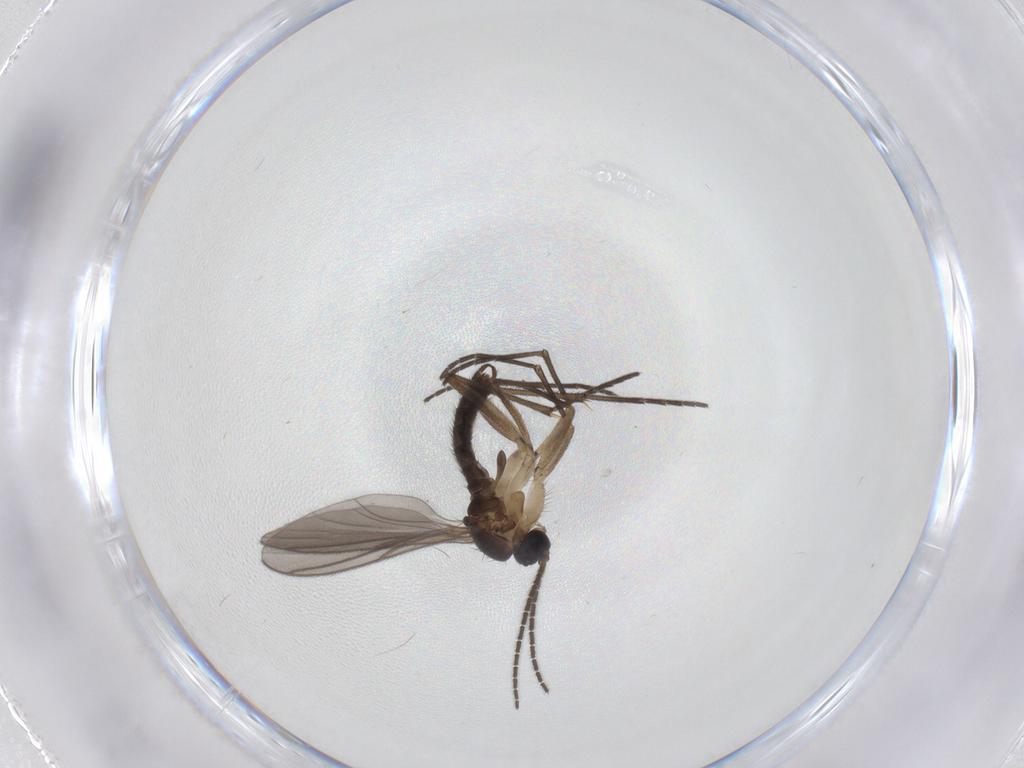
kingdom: Animalia
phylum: Arthropoda
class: Insecta
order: Diptera
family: Sciaridae
